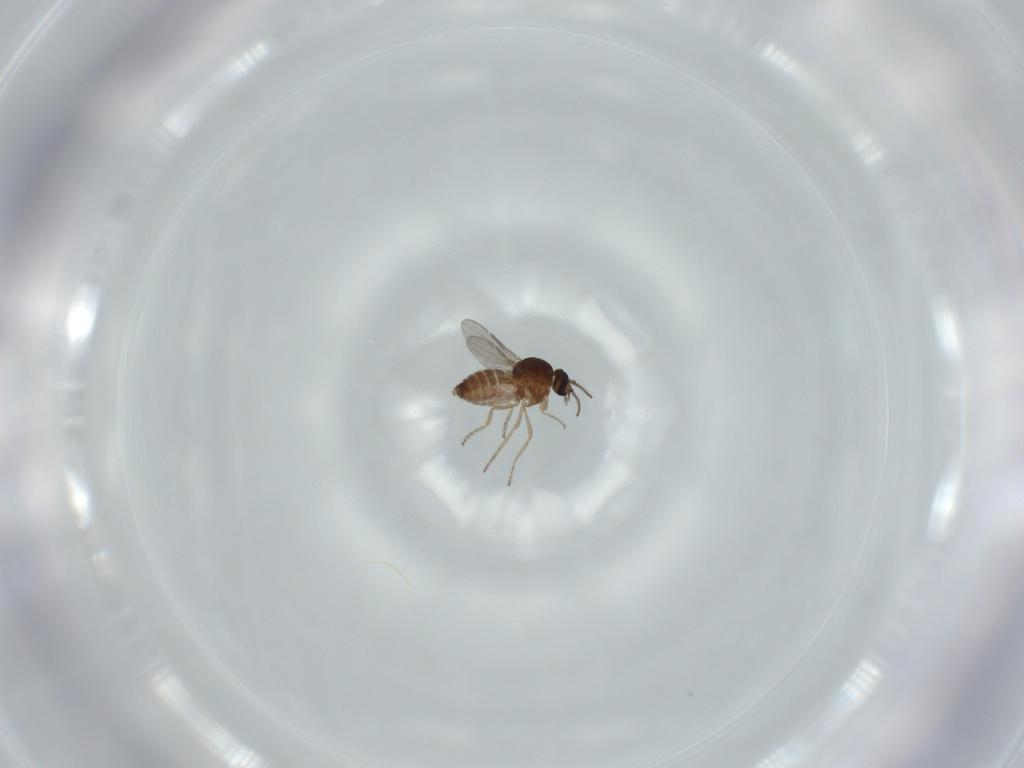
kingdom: Animalia
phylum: Arthropoda
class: Insecta
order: Diptera
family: Ceratopogonidae
